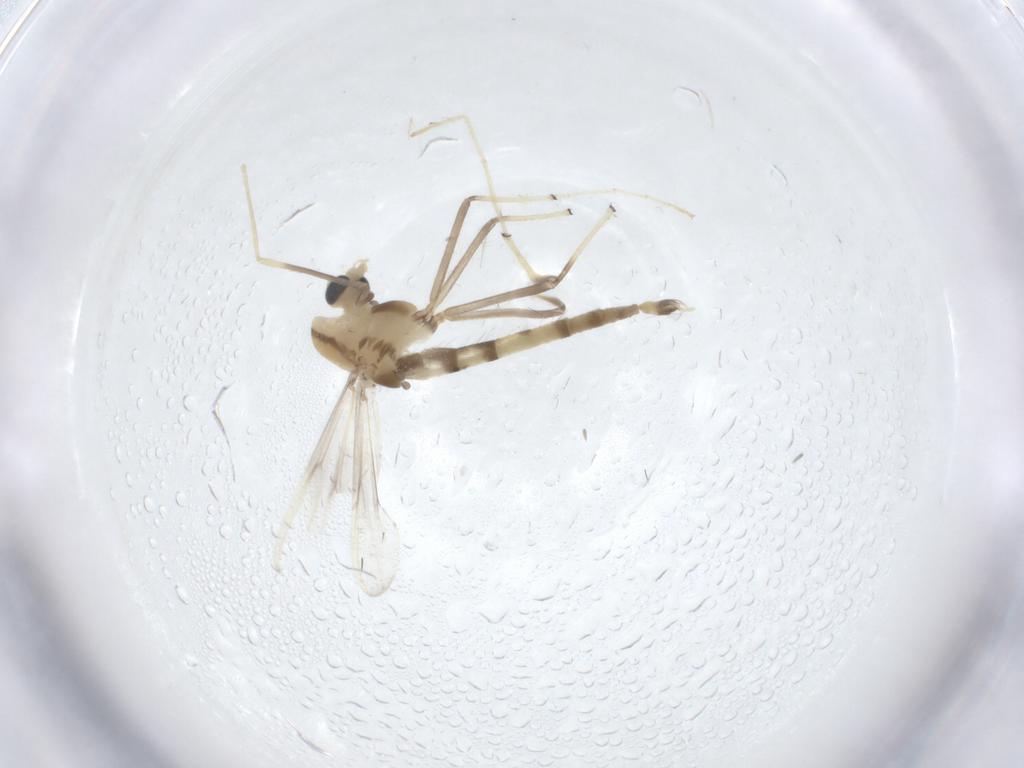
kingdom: Animalia
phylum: Arthropoda
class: Insecta
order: Diptera
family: Chironomidae
